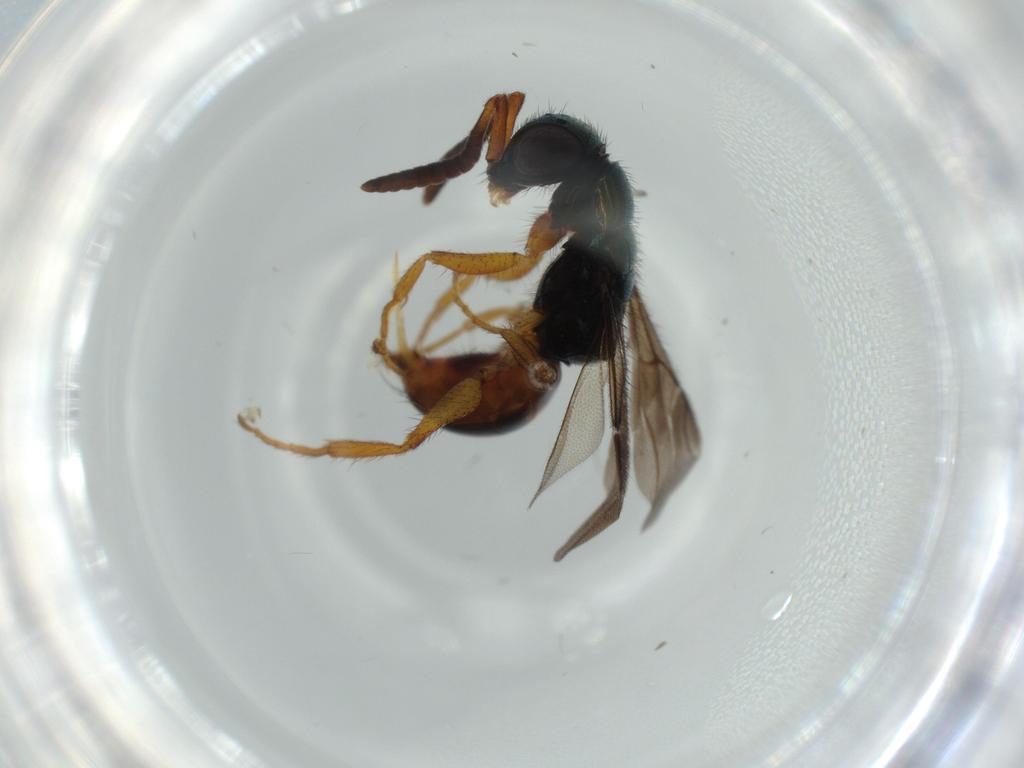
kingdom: Animalia
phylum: Arthropoda
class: Insecta
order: Hymenoptera
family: Chrysididae
